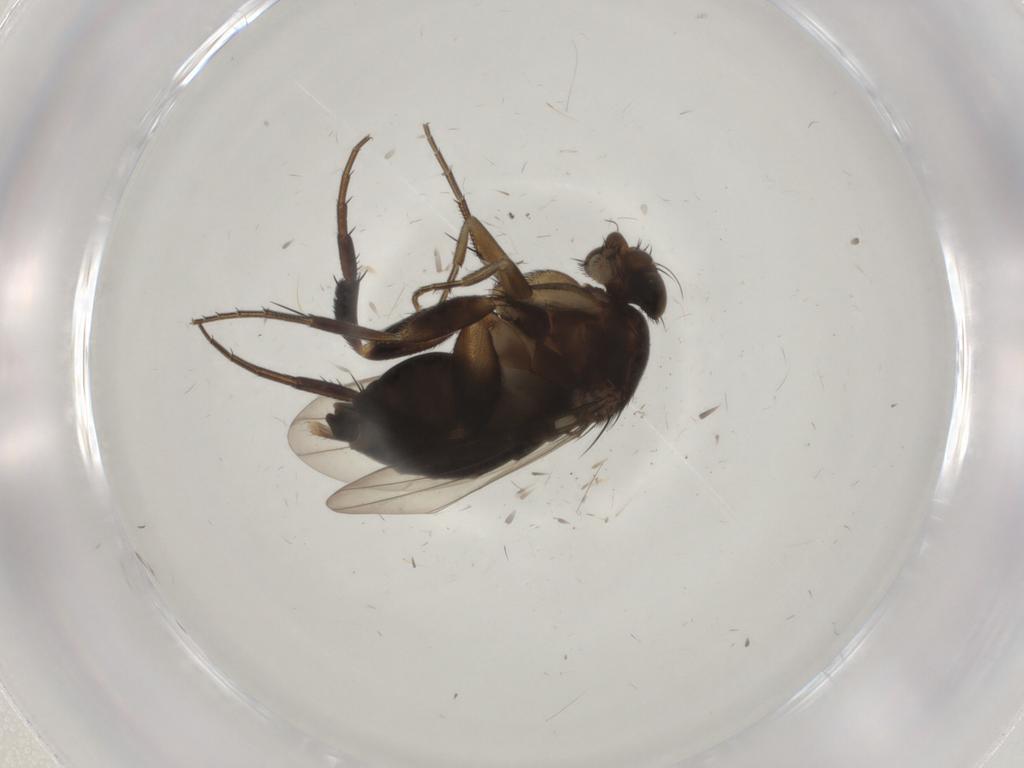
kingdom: Animalia
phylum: Arthropoda
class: Insecta
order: Diptera
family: Phoridae
